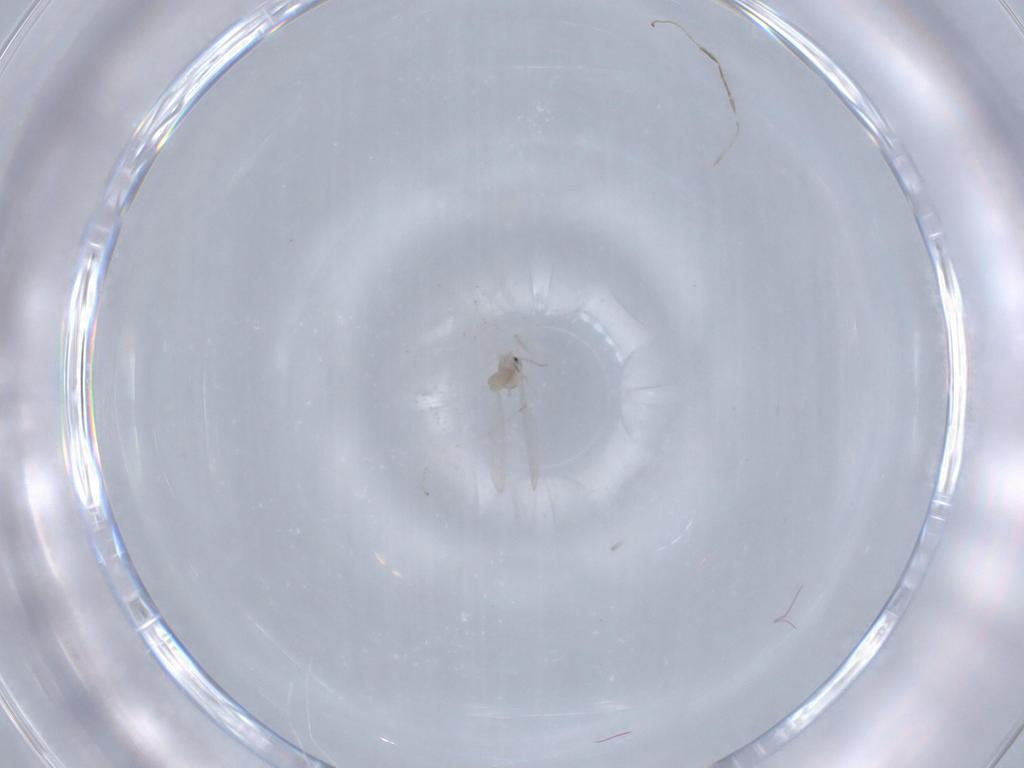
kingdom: Animalia
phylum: Arthropoda
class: Insecta
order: Diptera
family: Cecidomyiidae
